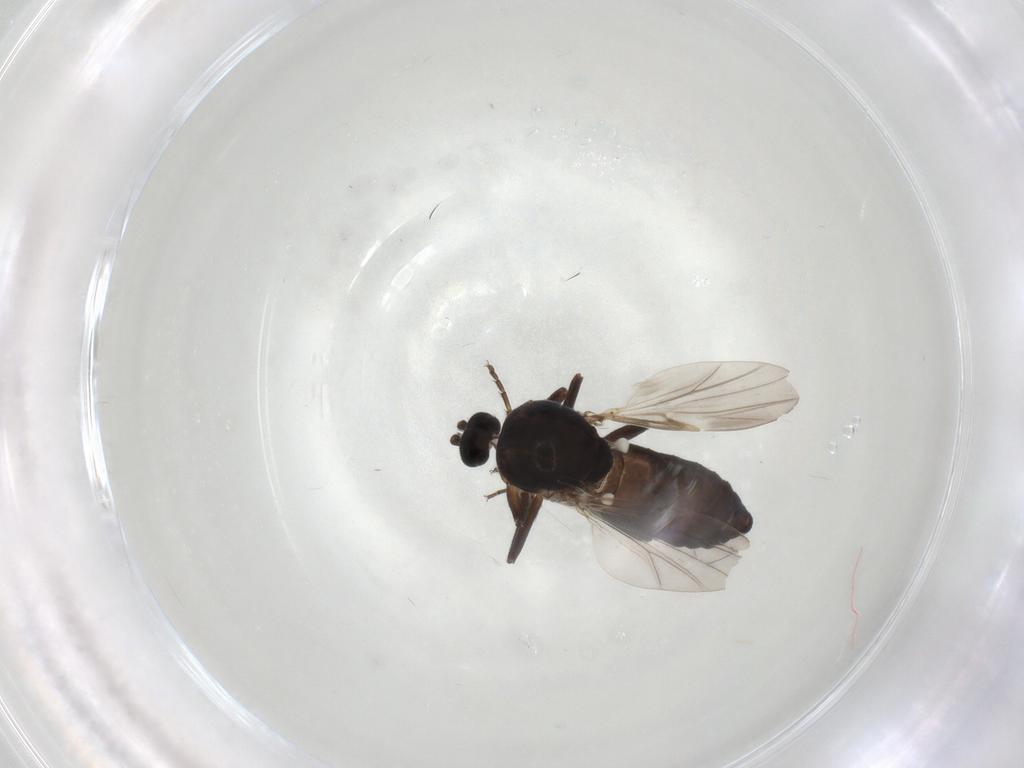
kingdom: Animalia
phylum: Arthropoda
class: Insecta
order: Diptera
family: Ceratopogonidae
